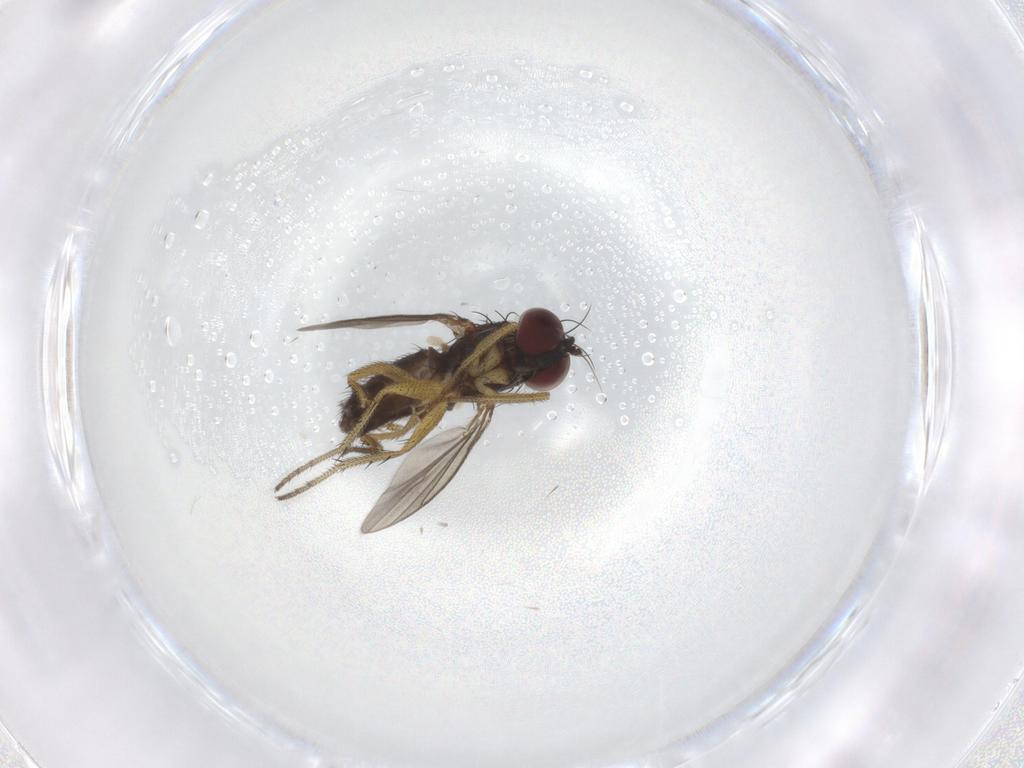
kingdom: Animalia
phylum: Arthropoda
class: Insecta
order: Diptera
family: Dolichopodidae
